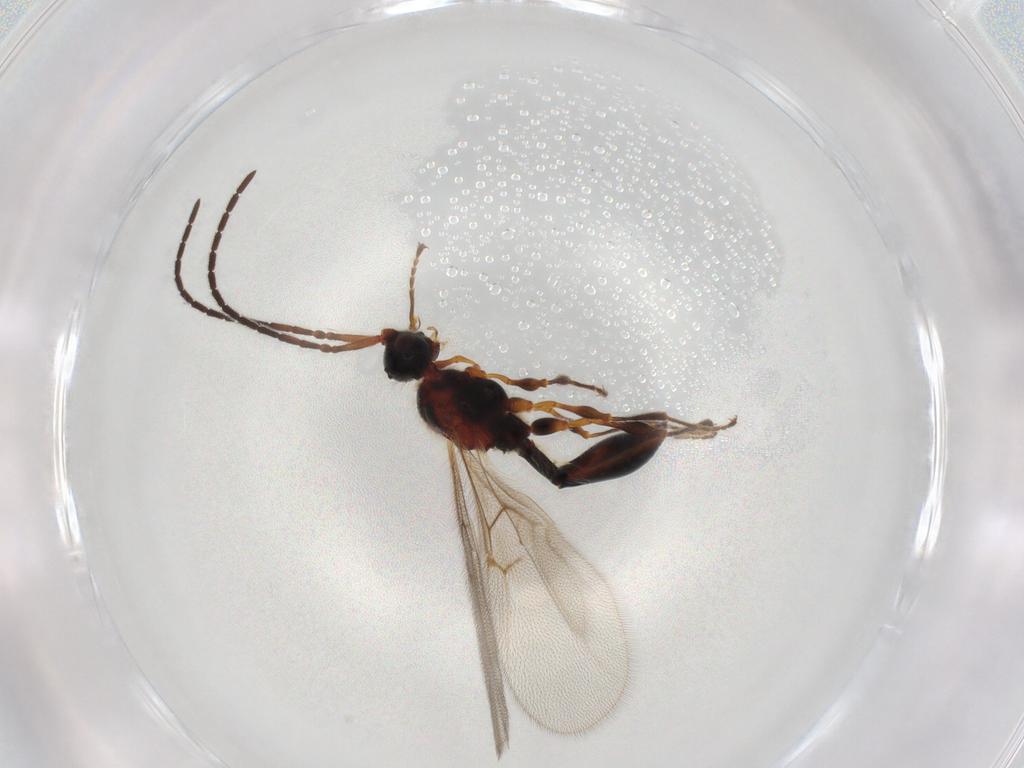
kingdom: Animalia
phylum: Arthropoda
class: Insecta
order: Hymenoptera
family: Diapriidae
